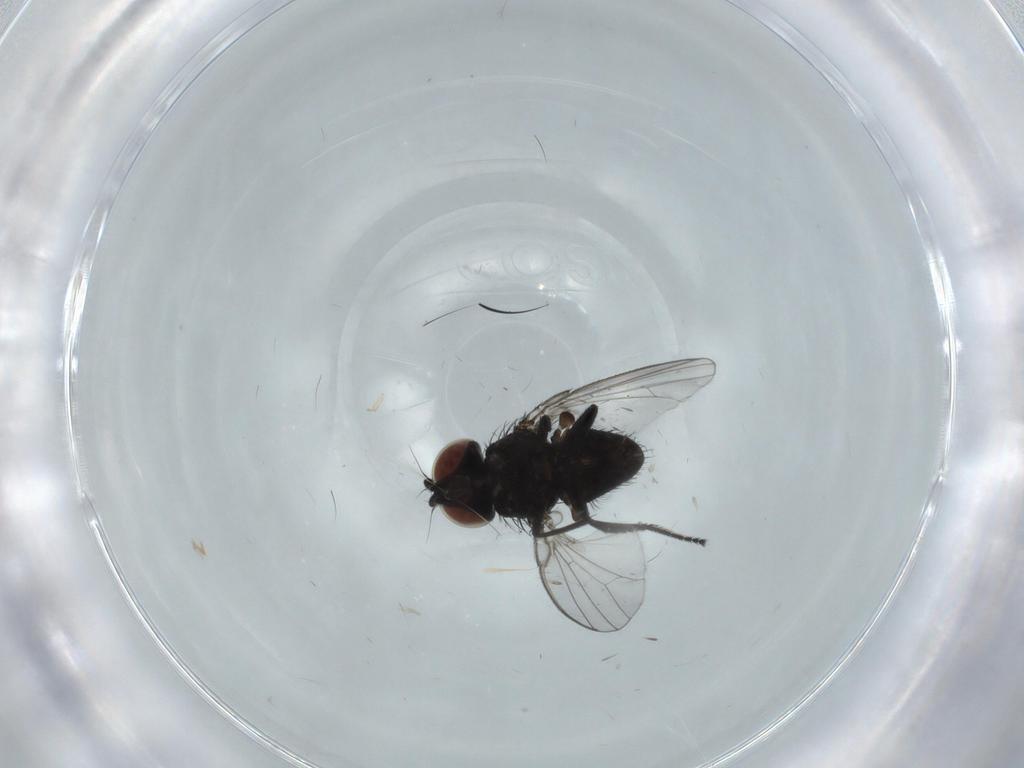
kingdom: Animalia
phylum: Arthropoda
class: Insecta
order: Diptera
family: Milichiidae
